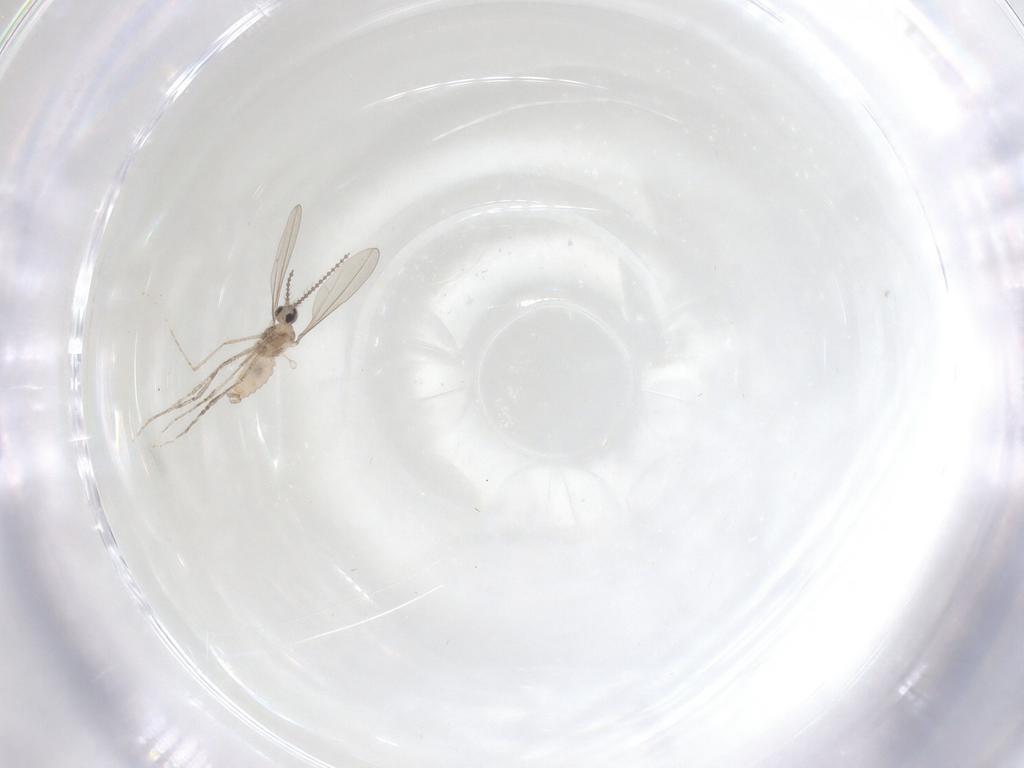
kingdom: Animalia
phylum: Arthropoda
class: Insecta
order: Diptera
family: Cecidomyiidae
